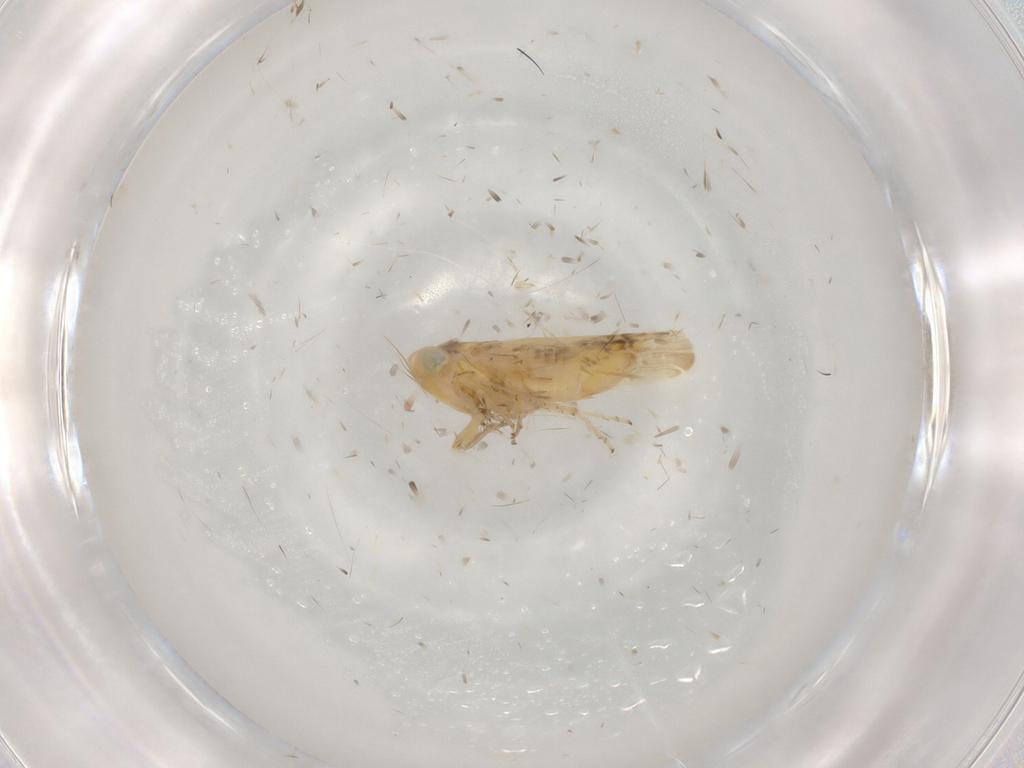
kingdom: Animalia
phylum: Arthropoda
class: Insecta
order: Hemiptera
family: Cicadellidae
